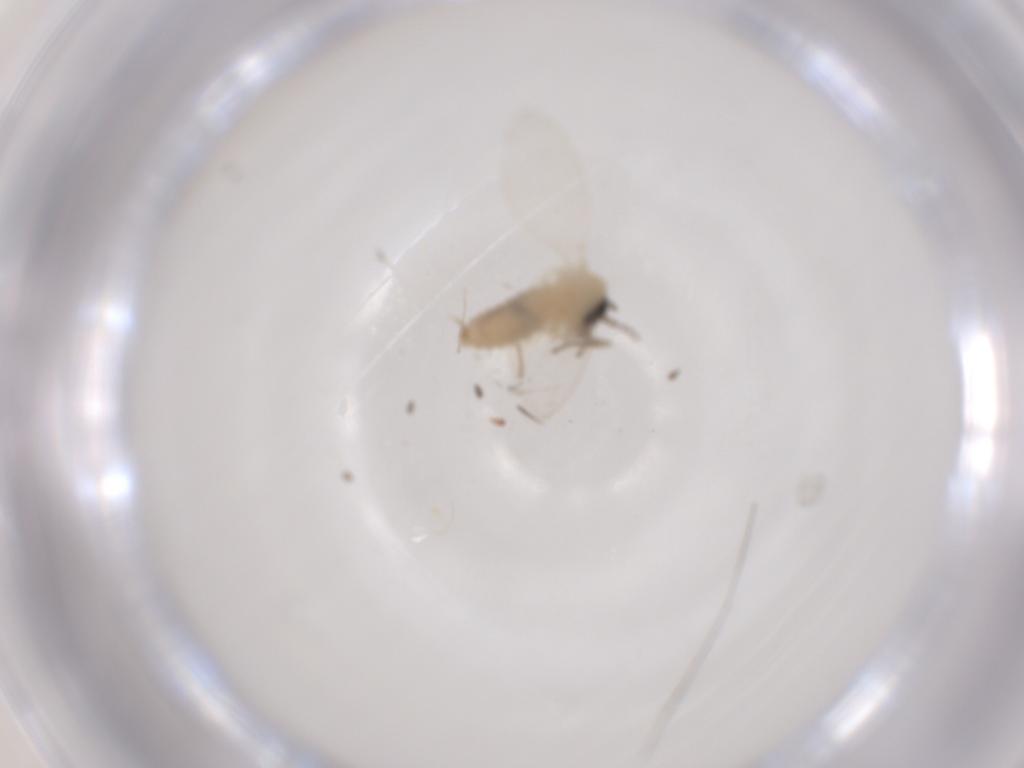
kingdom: Animalia
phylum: Arthropoda
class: Insecta
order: Diptera
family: Psychodidae
